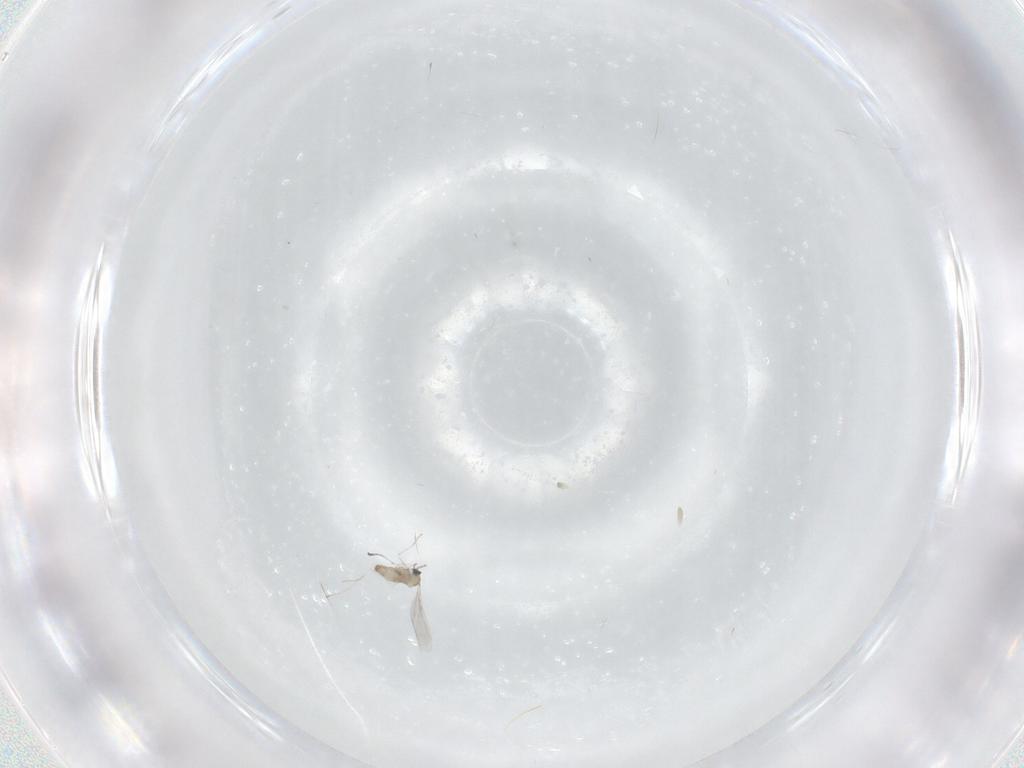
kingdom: Animalia
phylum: Arthropoda
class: Insecta
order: Diptera
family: Cecidomyiidae
